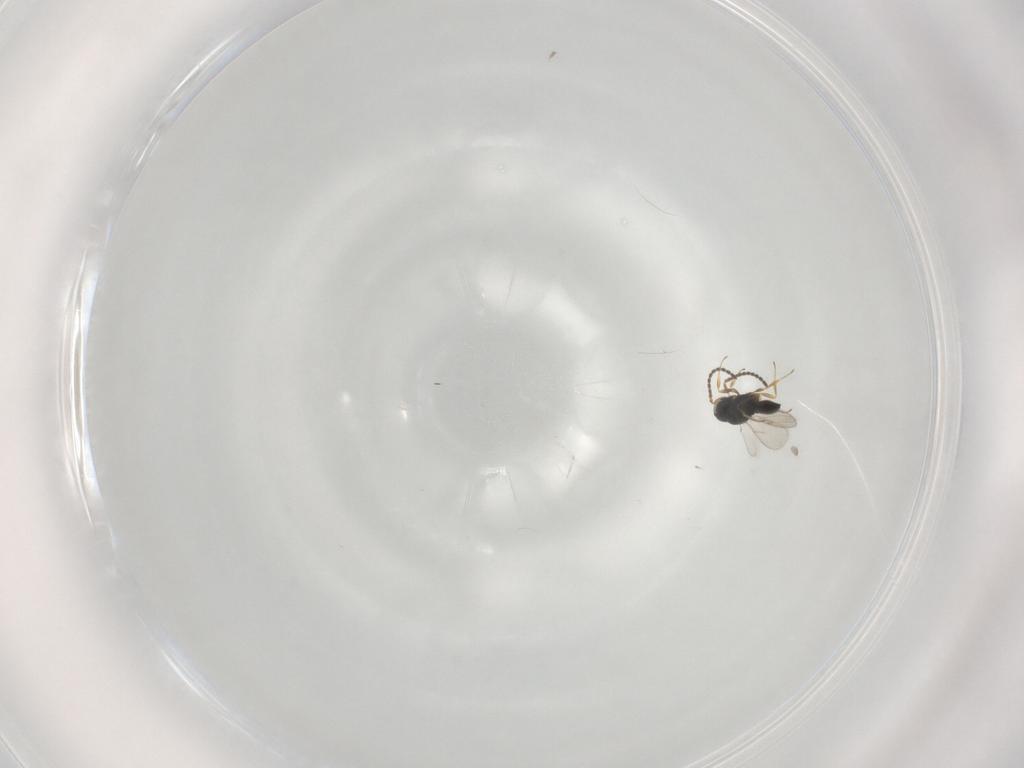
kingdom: Animalia
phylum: Arthropoda
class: Insecta
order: Hymenoptera
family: Scelionidae
